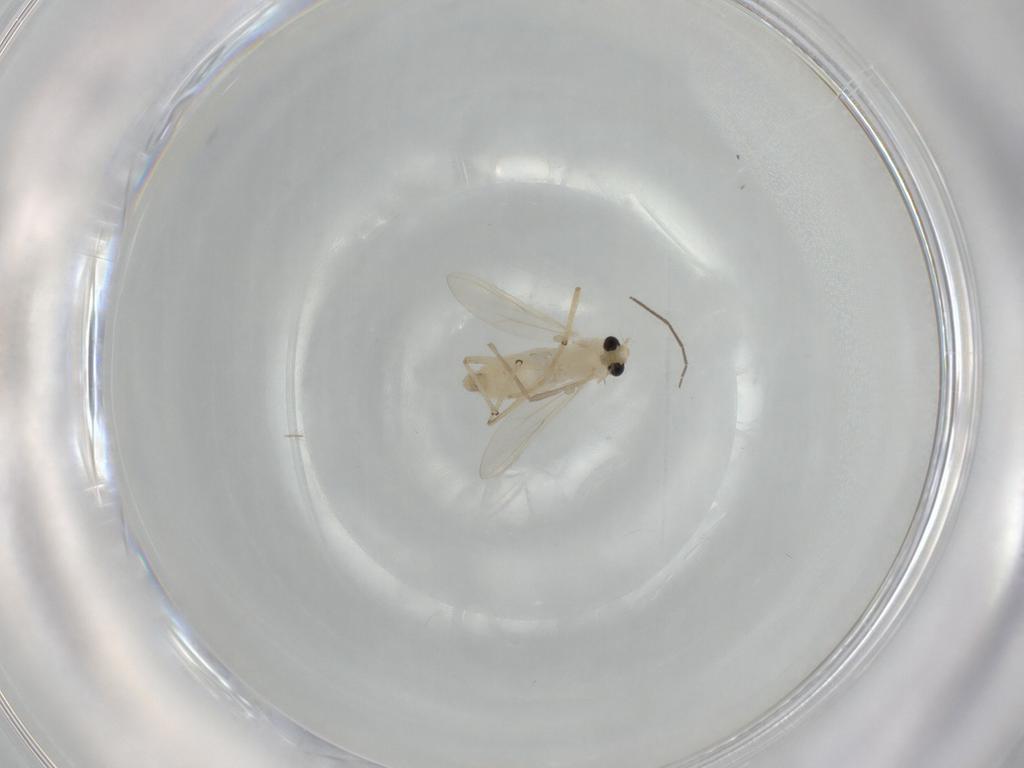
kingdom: Animalia
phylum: Arthropoda
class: Insecta
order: Diptera
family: Chironomidae
